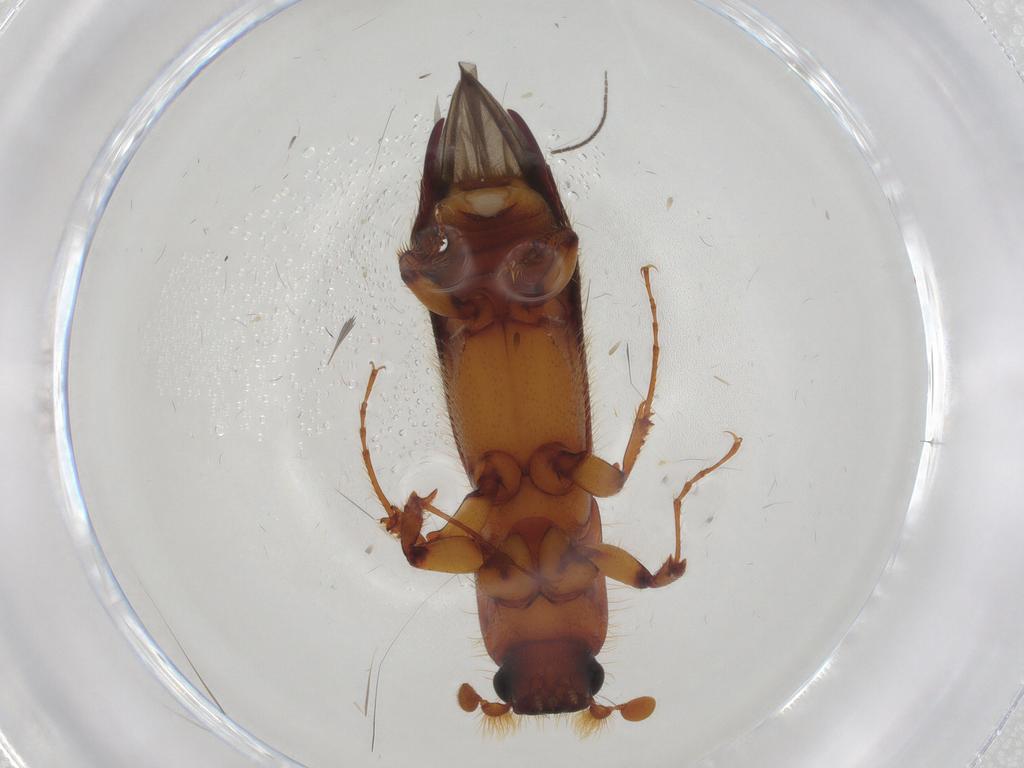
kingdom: Animalia
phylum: Arthropoda
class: Insecta
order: Coleoptera
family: Curculionidae
